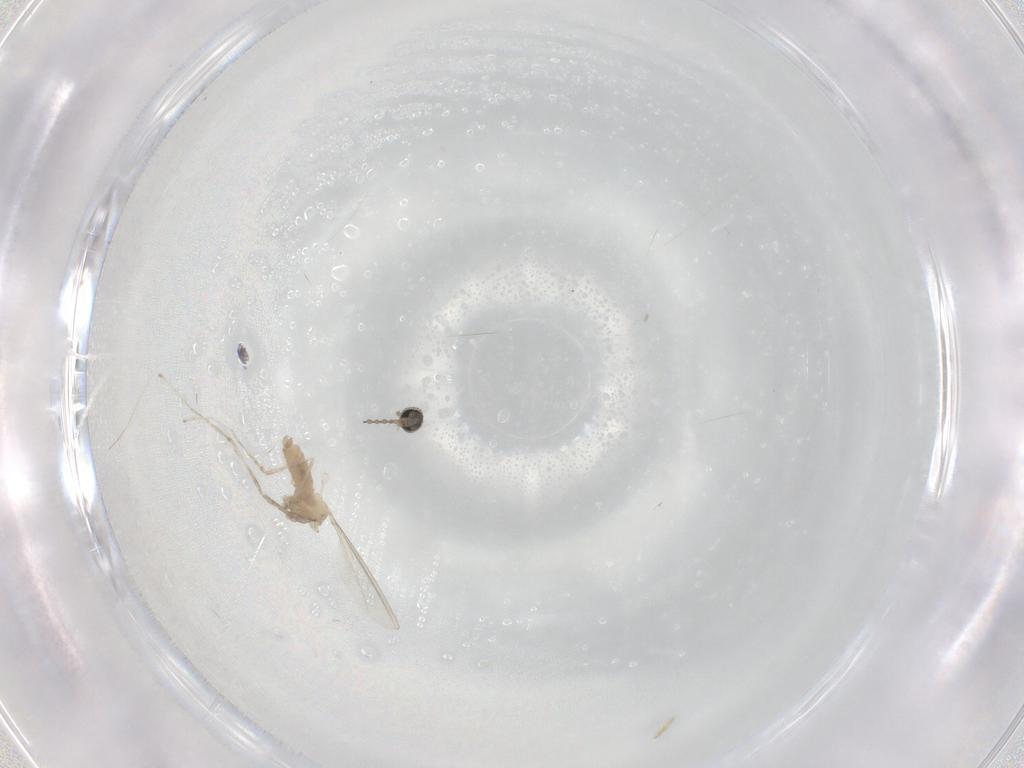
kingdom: Animalia
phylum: Arthropoda
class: Insecta
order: Diptera
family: Cecidomyiidae
